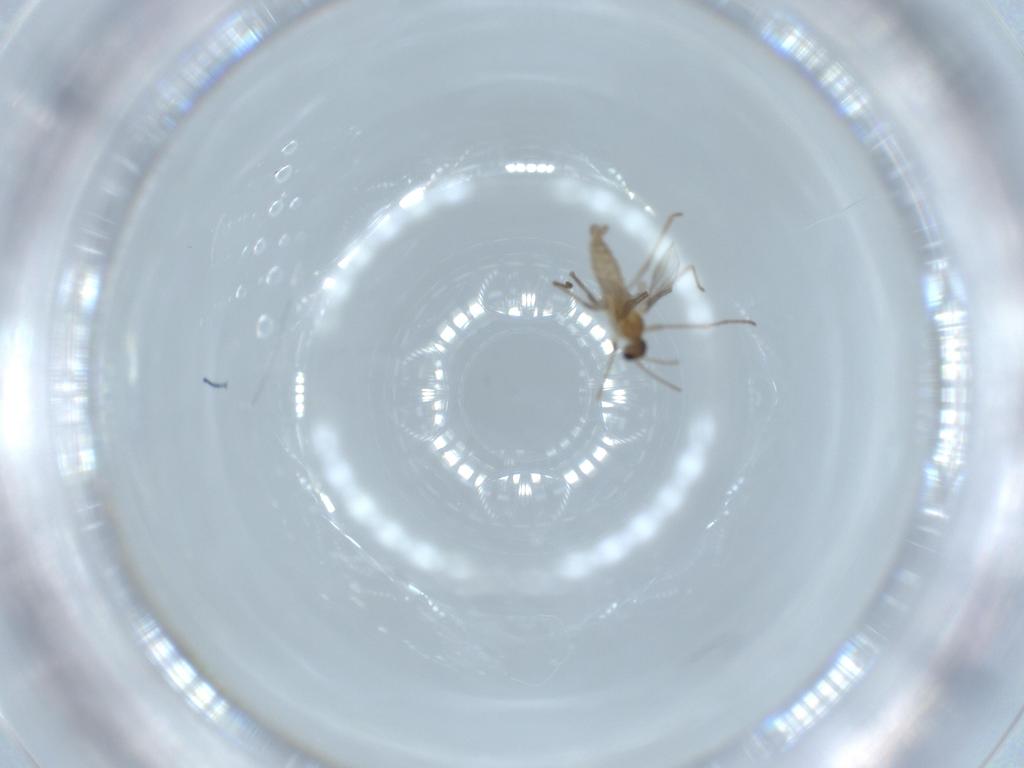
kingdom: Animalia
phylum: Arthropoda
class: Insecta
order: Diptera
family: Cecidomyiidae
